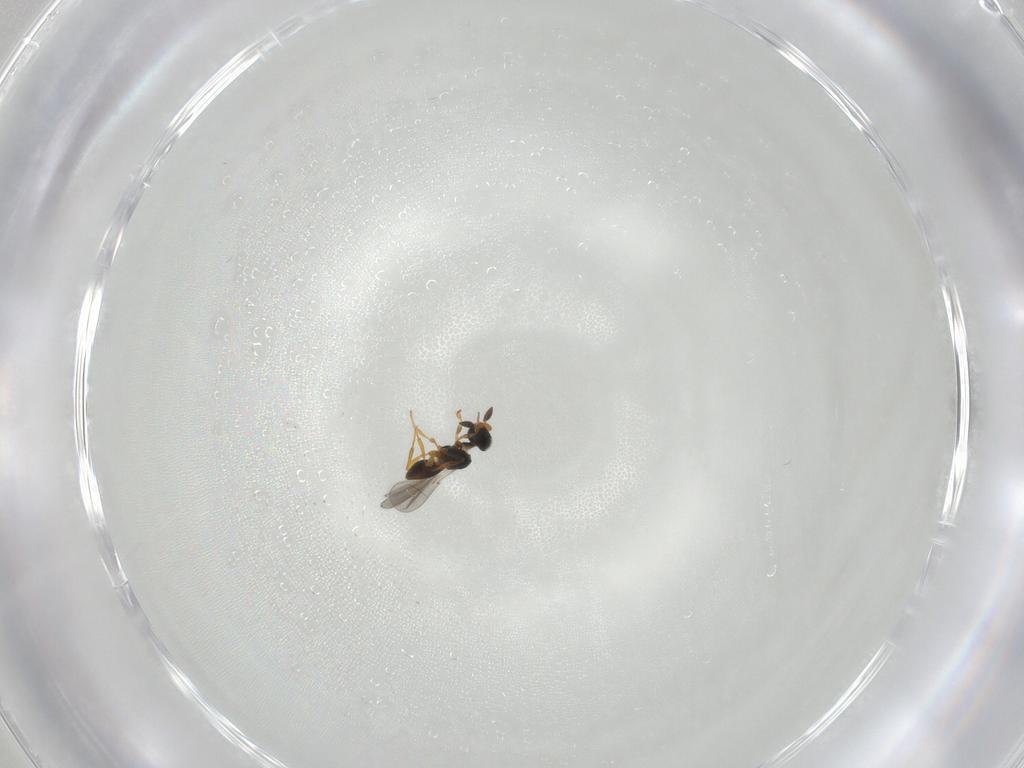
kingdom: Animalia
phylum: Arthropoda
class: Insecta
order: Hymenoptera
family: Platygastridae
